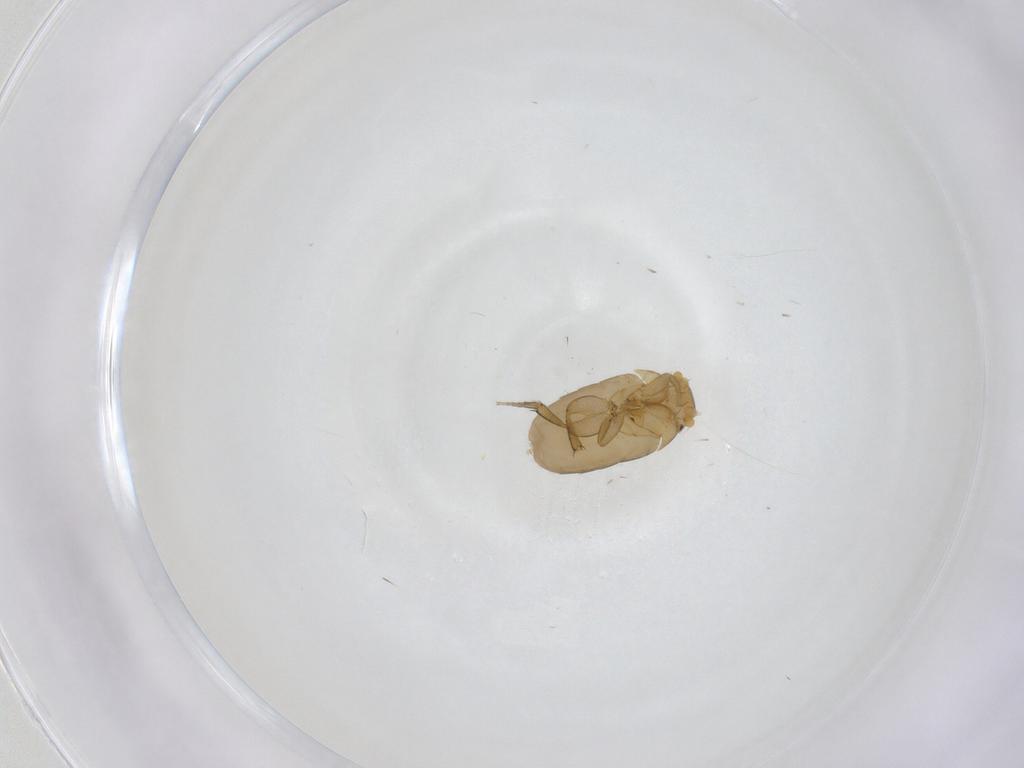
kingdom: Animalia
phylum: Arthropoda
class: Insecta
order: Diptera
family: Phoridae
